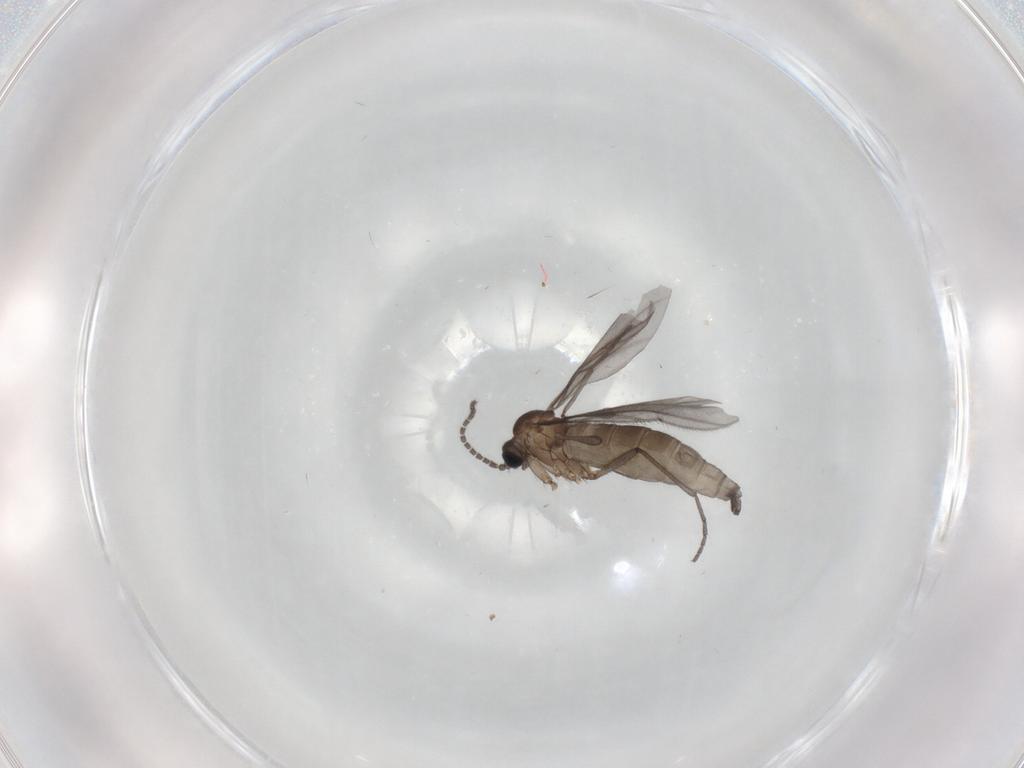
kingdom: Animalia
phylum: Arthropoda
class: Insecta
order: Diptera
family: Sciaridae
